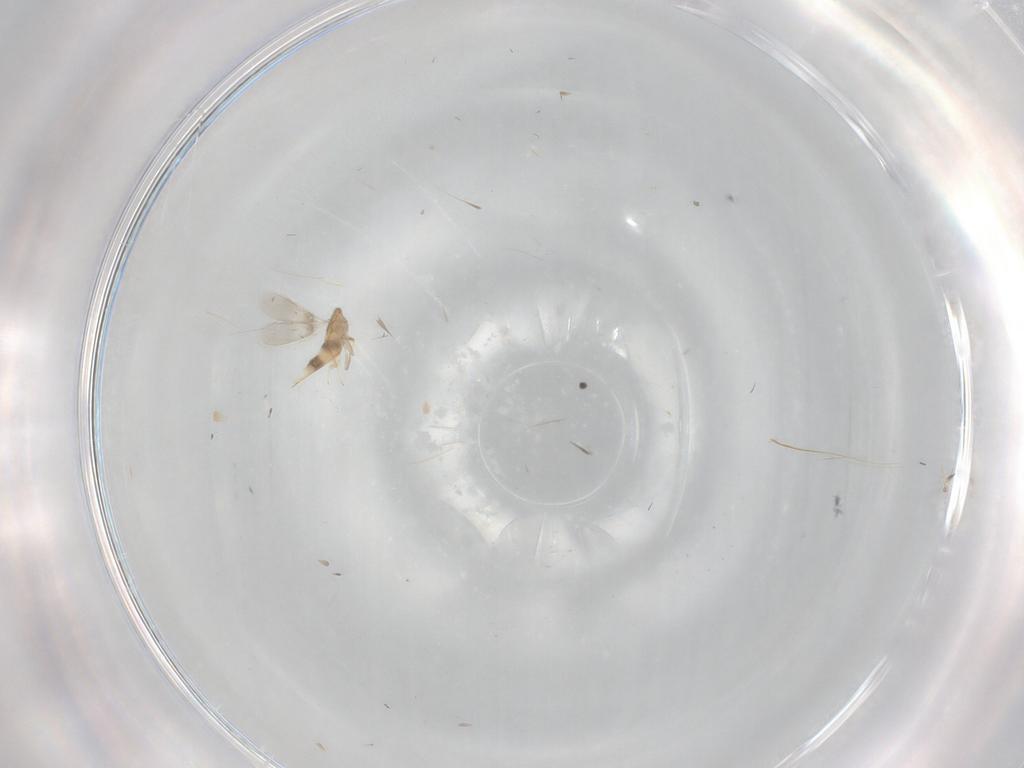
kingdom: Animalia
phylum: Arthropoda
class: Insecta
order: Hymenoptera
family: Aphelinidae
